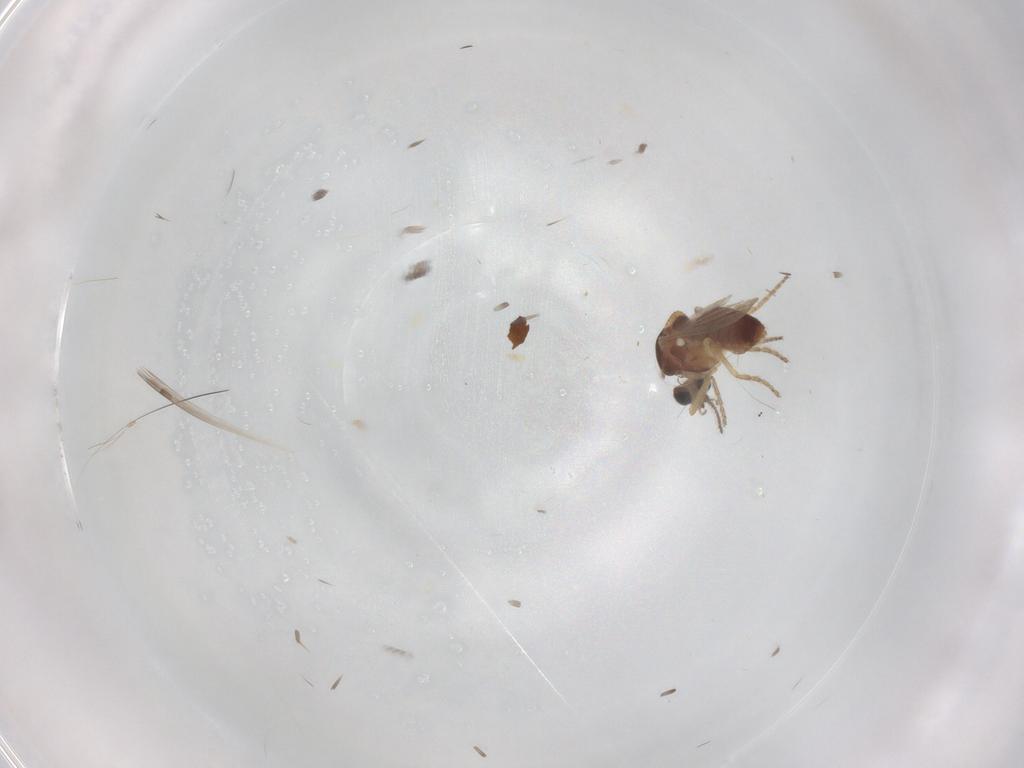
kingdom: Animalia
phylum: Arthropoda
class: Insecta
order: Diptera
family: Ceratopogonidae
